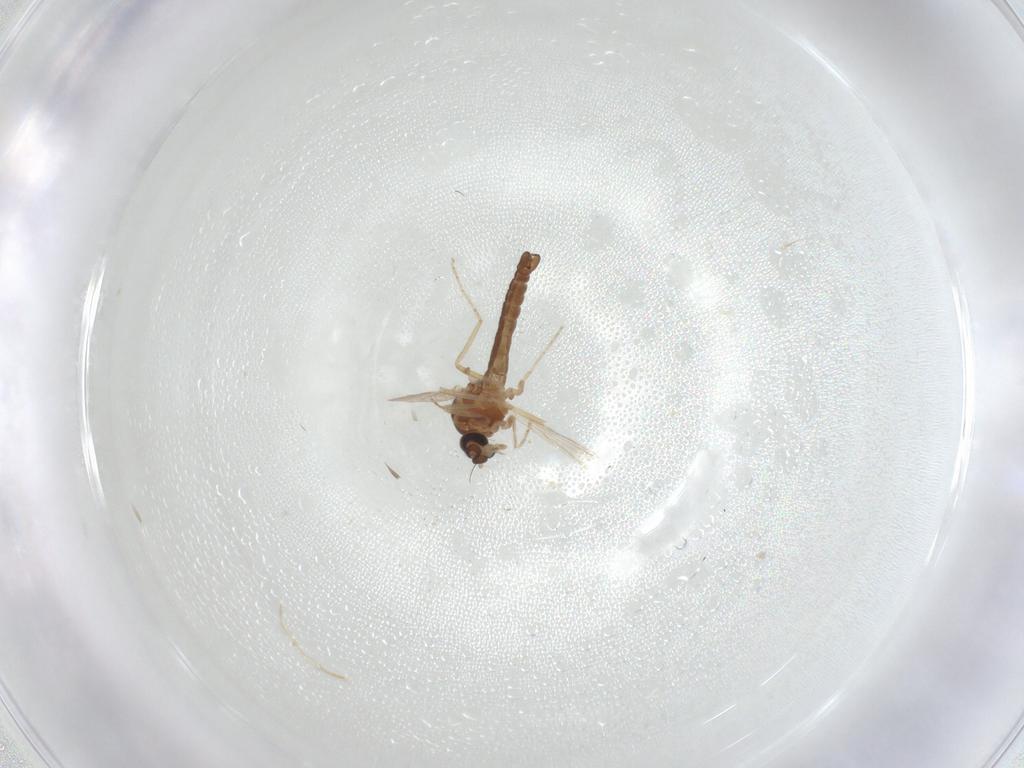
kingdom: Animalia
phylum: Arthropoda
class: Insecta
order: Diptera
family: Ceratopogonidae
